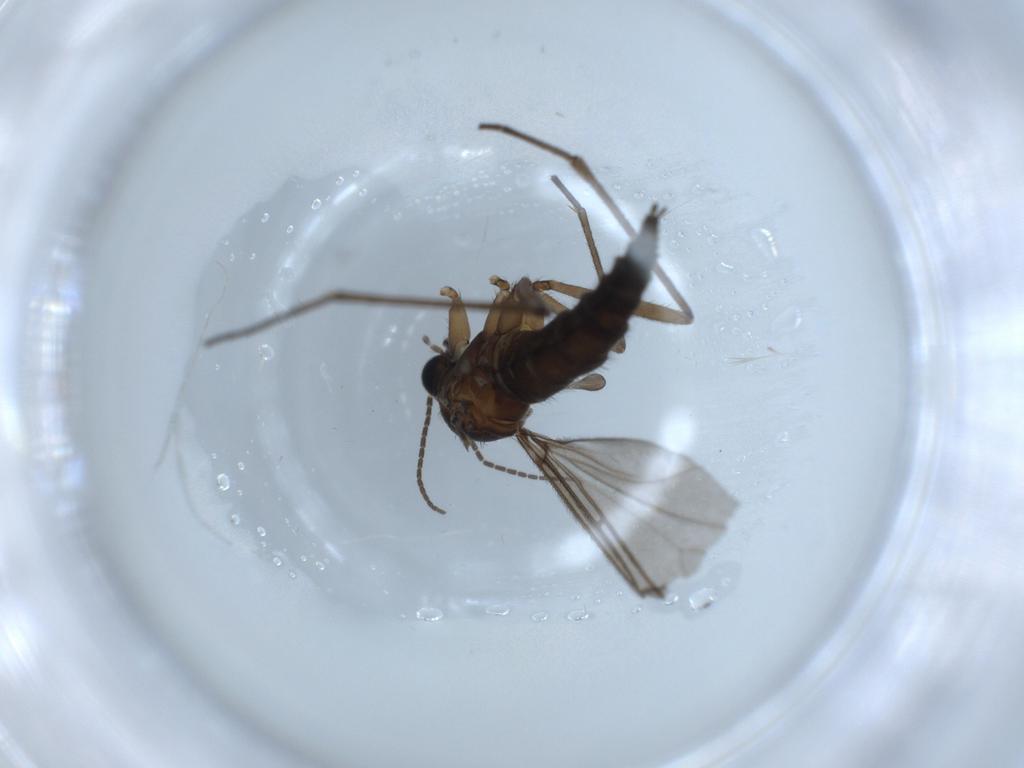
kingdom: Animalia
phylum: Arthropoda
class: Insecta
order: Diptera
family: Sciaridae
